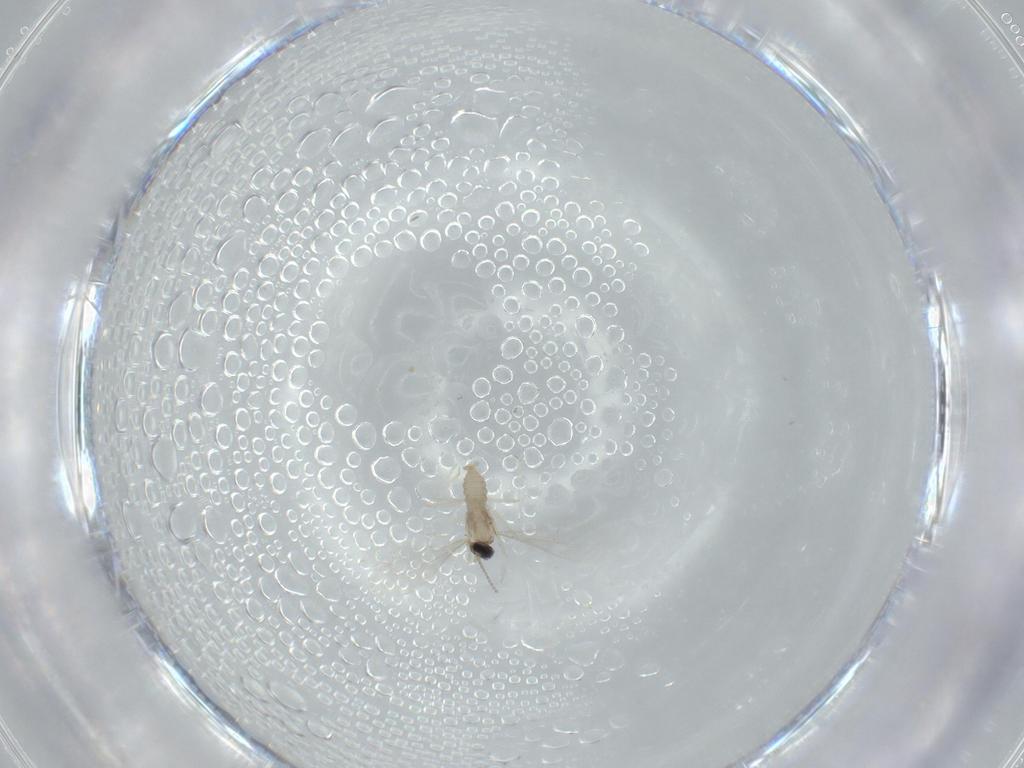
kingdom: Animalia
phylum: Arthropoda
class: Insecta
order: Diptera
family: Cecidomyiidae
